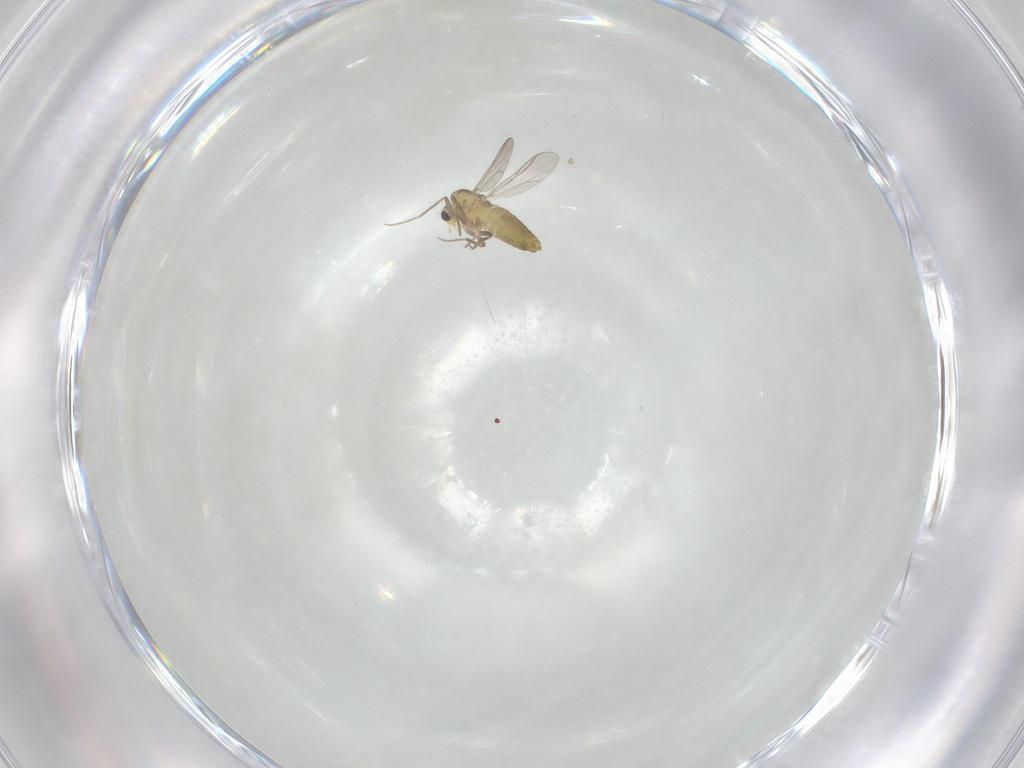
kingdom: Animalia
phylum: Arthropoda
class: Insecta
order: Diptera
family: Chironomidae
